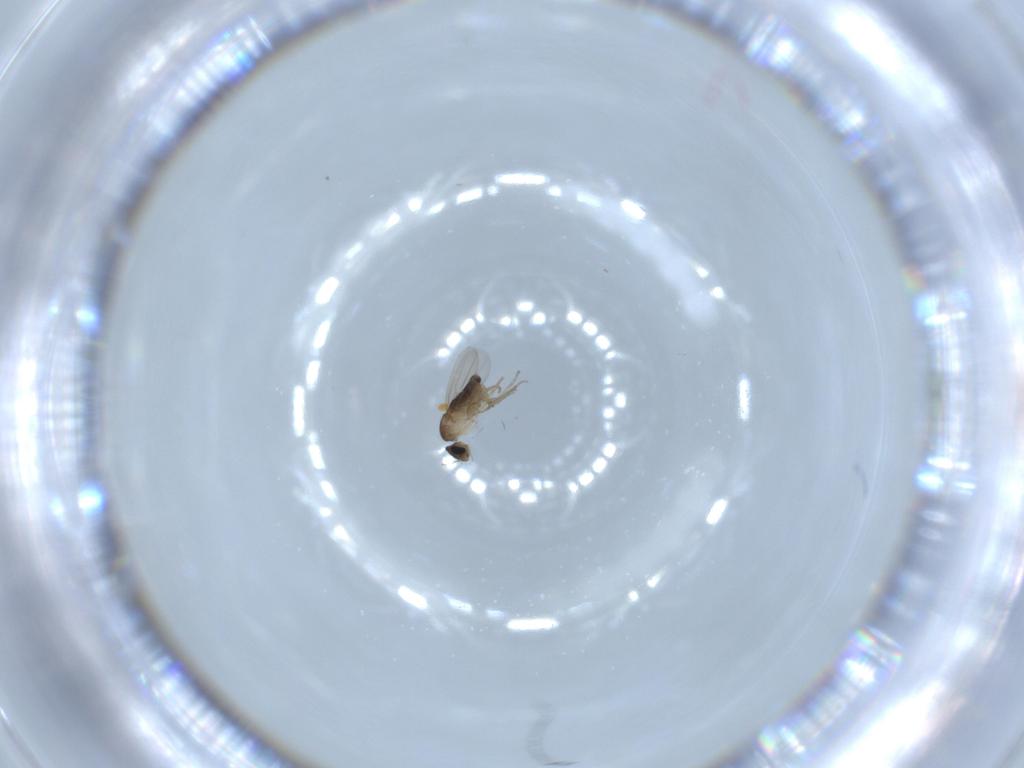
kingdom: Animalia
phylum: Arthropoda
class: Insecta
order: Diptera
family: Phoridae
